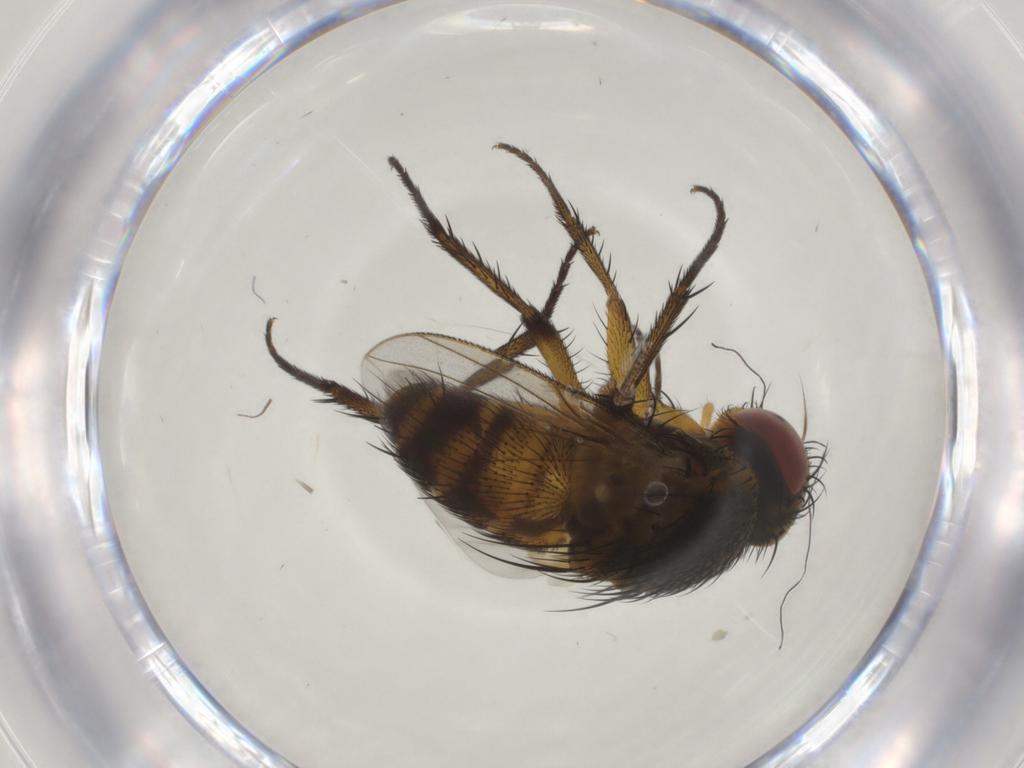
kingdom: Animalia
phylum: Arthropoda
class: Insecta
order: Diptera
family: Tachinidae
